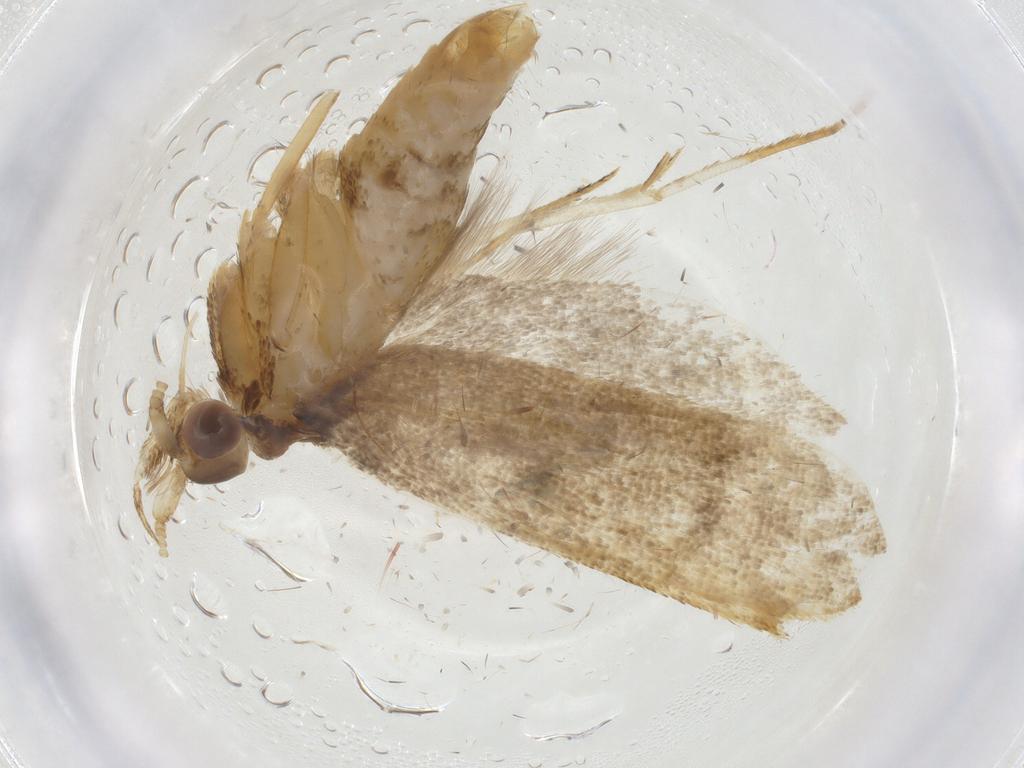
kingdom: Animalia
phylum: Arthropoda
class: Insecta
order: Lepidoptera
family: Lecithoceridae
